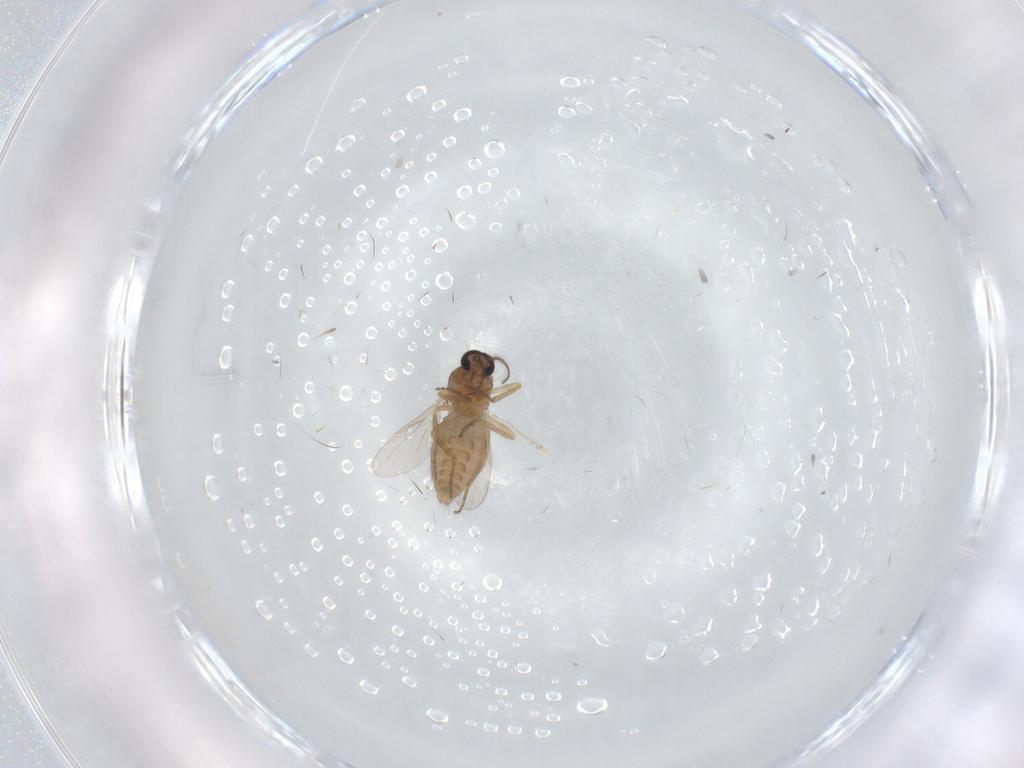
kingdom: Animalia
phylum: Arthropoda
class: Insecta
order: Diptera
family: Ceratopogonidae
